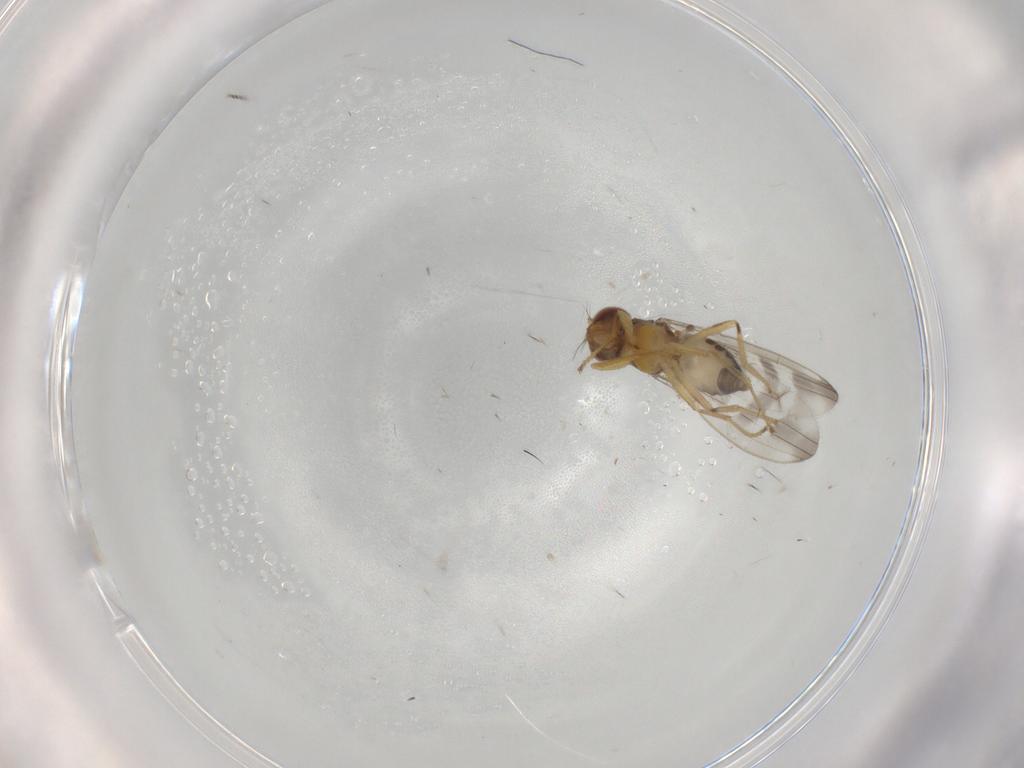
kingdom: Animalia
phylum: Arthropoda
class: Insecta
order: Diptera
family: Periscelididae
